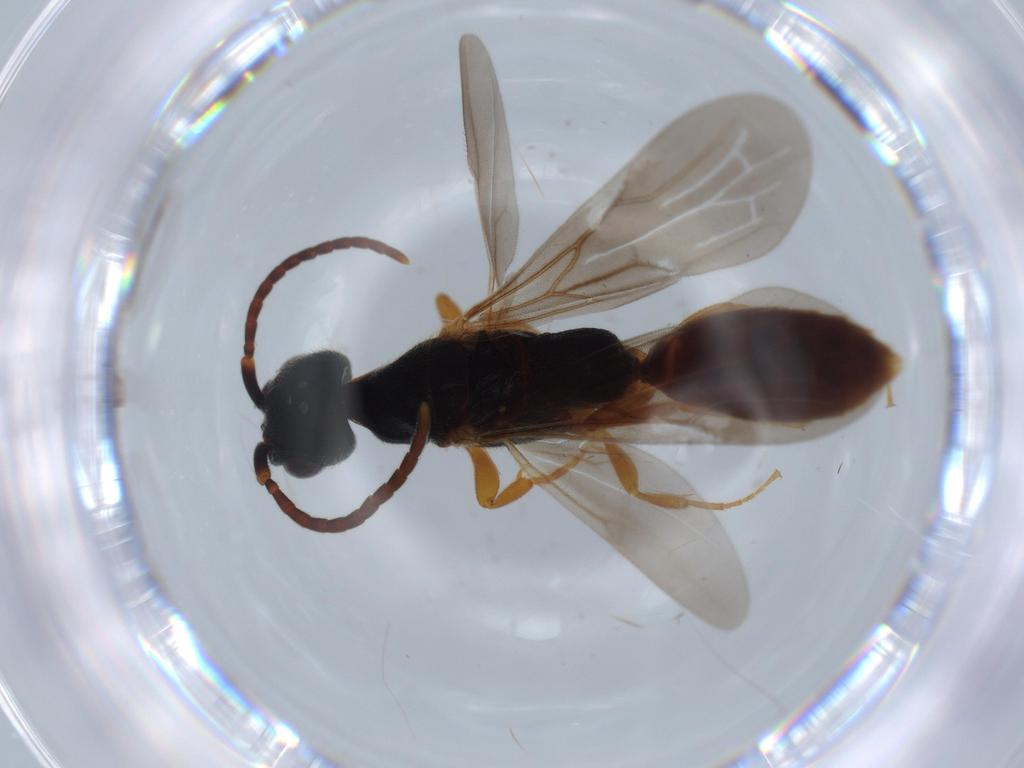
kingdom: Animalia
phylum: Arthropoda
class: Insecta
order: Hymenoptera
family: Bethylidae
